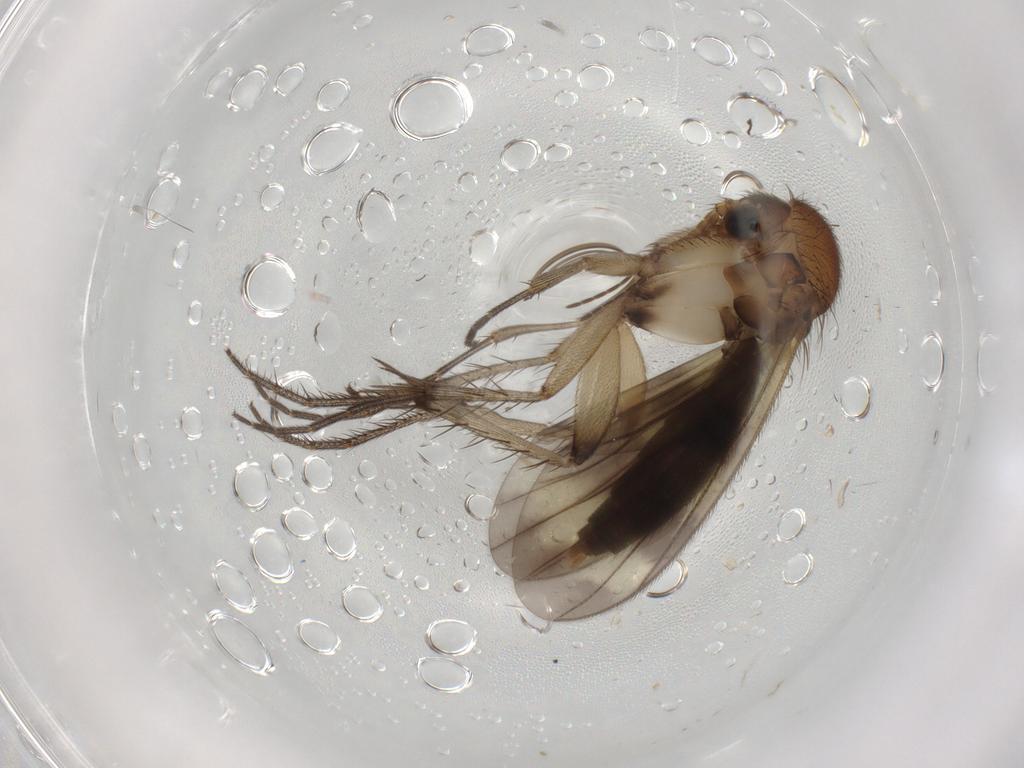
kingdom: Animalia
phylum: Arthropoda
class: Insecta
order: Diptera
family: Phoridae
